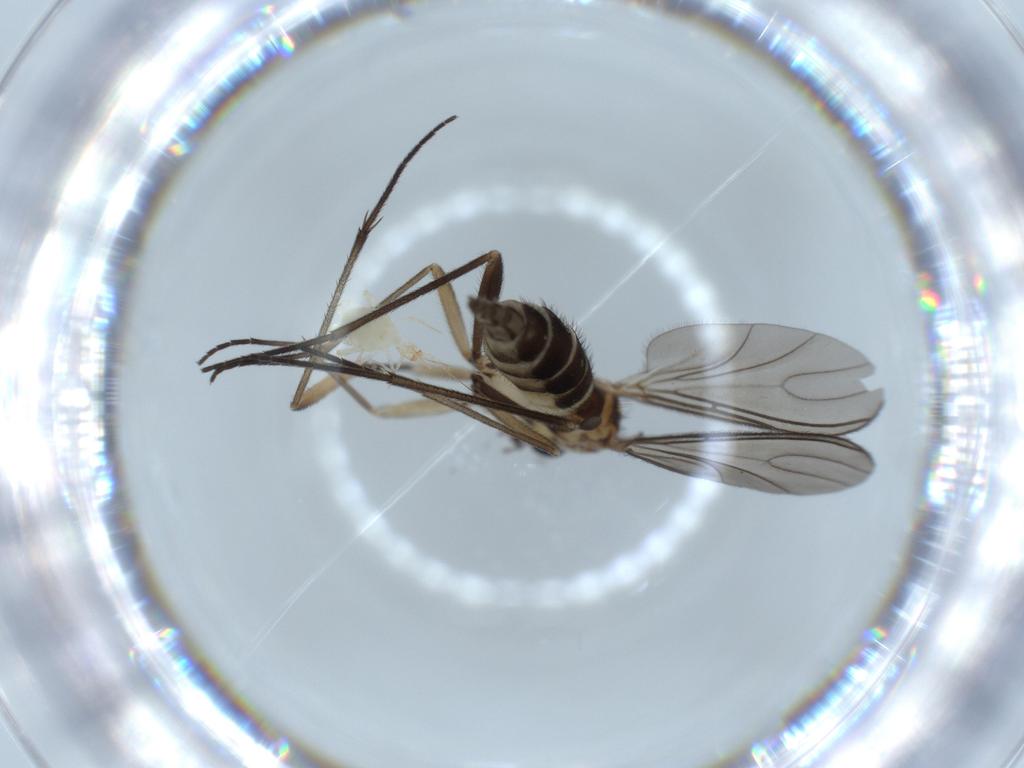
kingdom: Animalia
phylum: Arthropoda
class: Insecta
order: Diptera
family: Sciaridae
